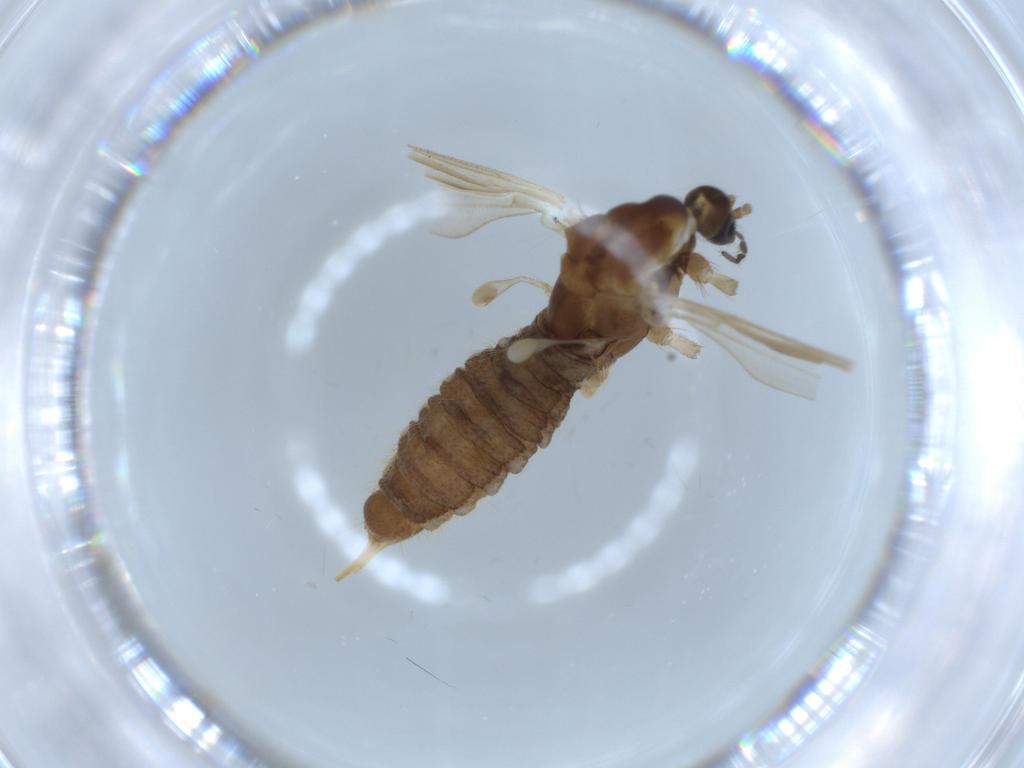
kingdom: Animalia
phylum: Arthropoda
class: Insecta
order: Diptera
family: Limoniidae
